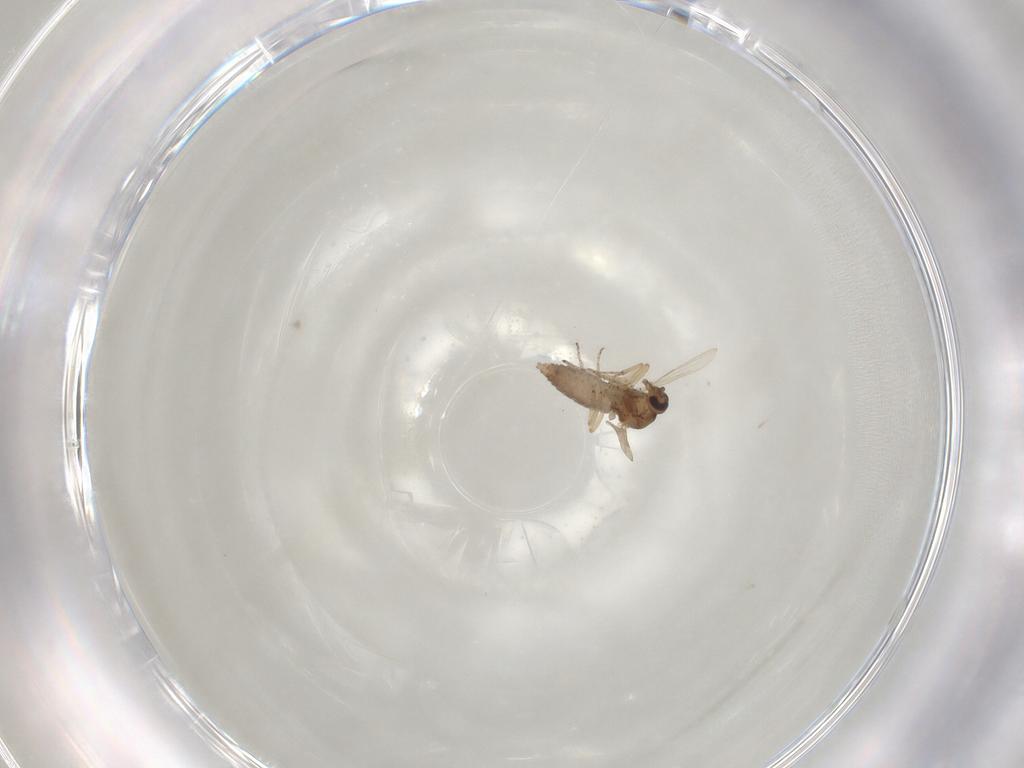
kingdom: Animalia
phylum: Arthropoda
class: Insecta
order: Diptera
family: Ceratopogonidae
